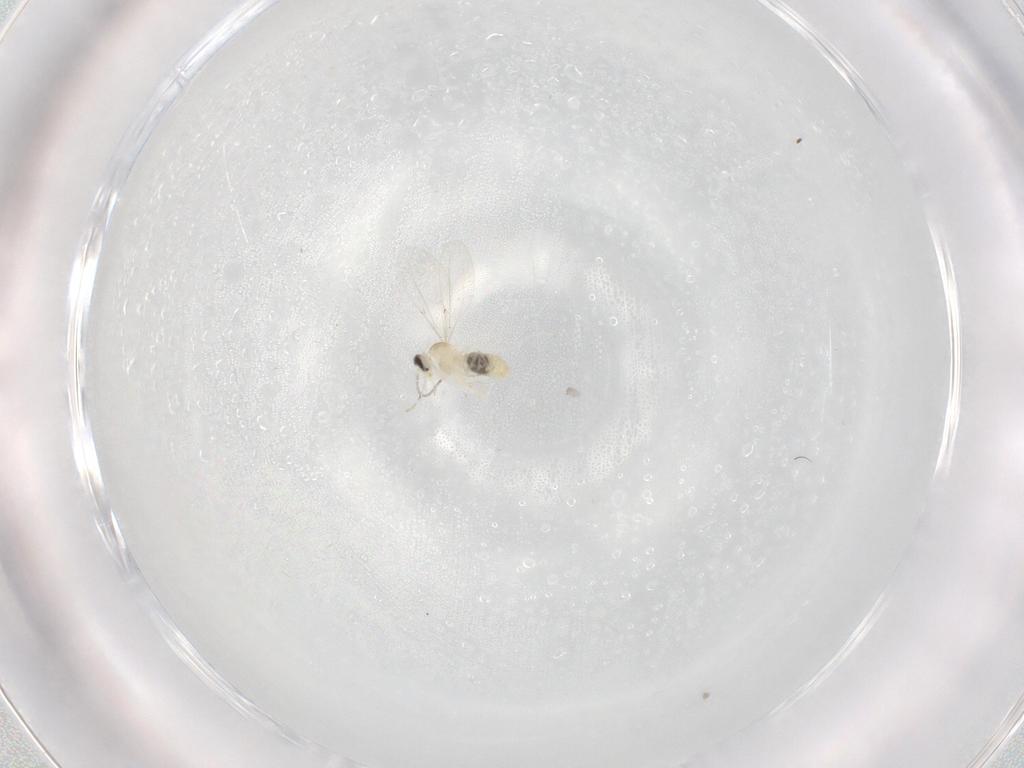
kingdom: Animalia
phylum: Arthropoda
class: Insecta
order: Diptera
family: Cecidomyiidae
